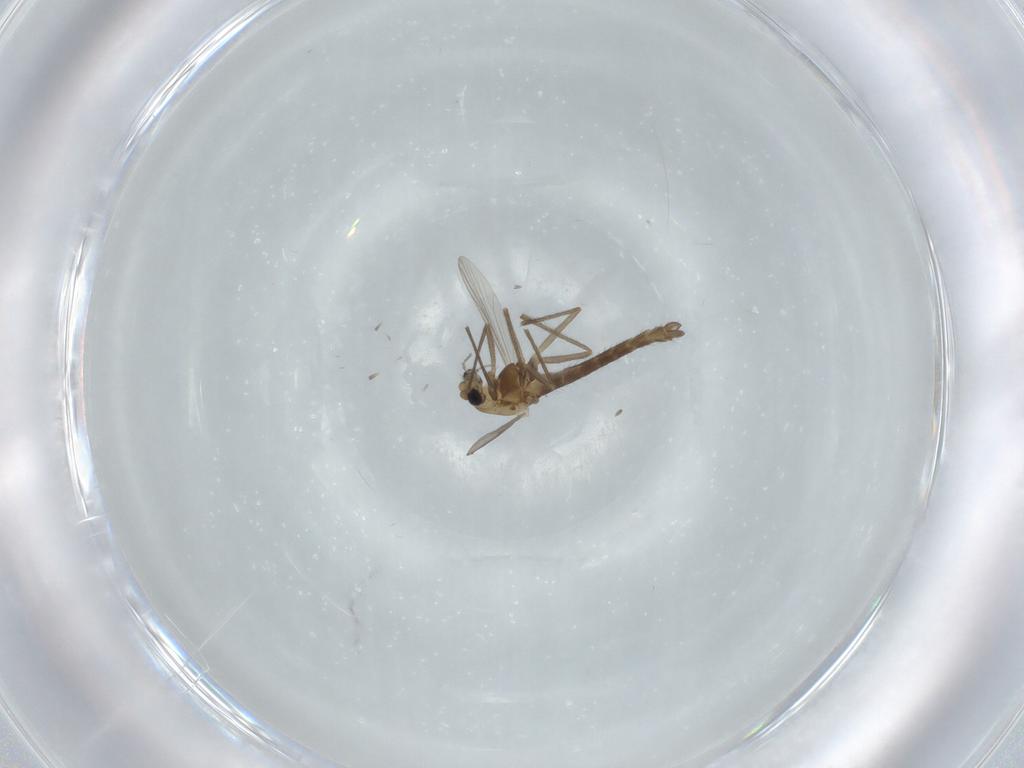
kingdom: Animalia
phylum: Arthropoda
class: Insecta
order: Diptera
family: Chironomidae
